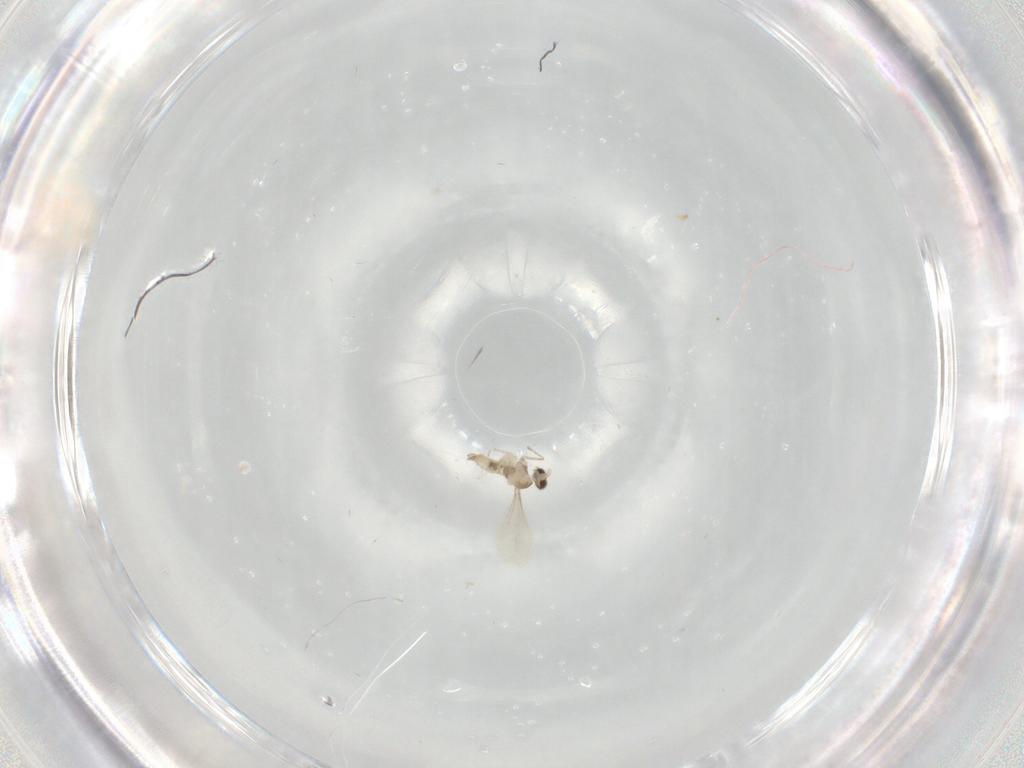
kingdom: Animalia
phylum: Arthropoda
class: Insecta
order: Diptera
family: Cecidomyiidae
